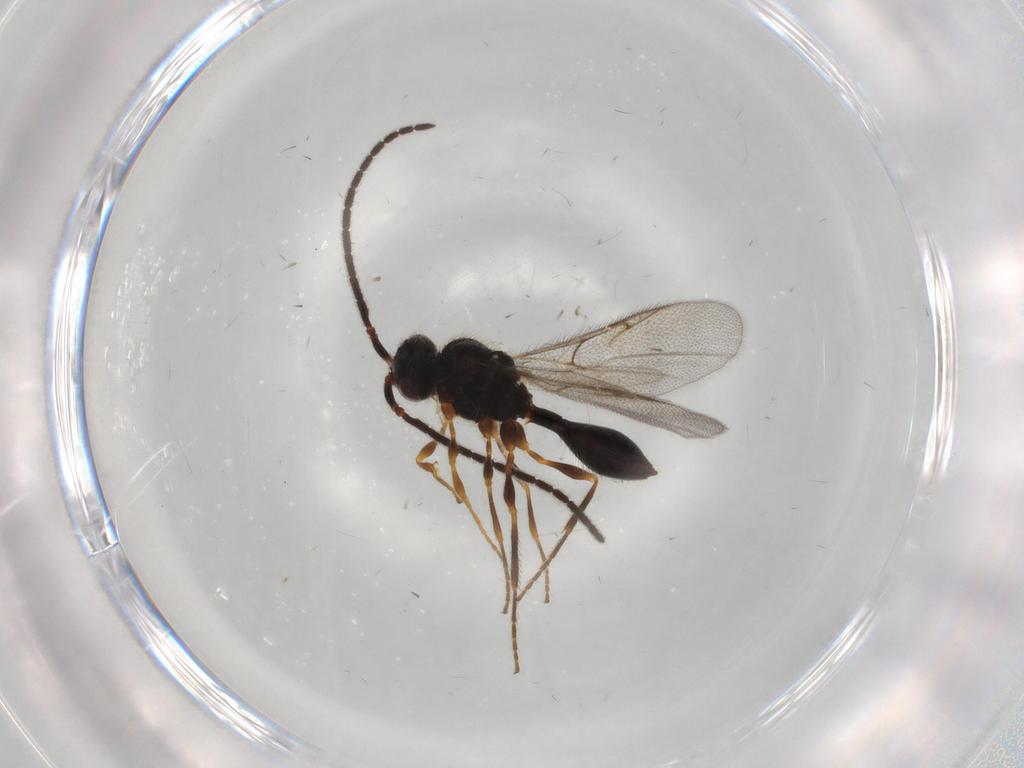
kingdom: Animalia
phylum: Arthropoda
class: Insecta
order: Hymenoptera
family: Diapriidae
